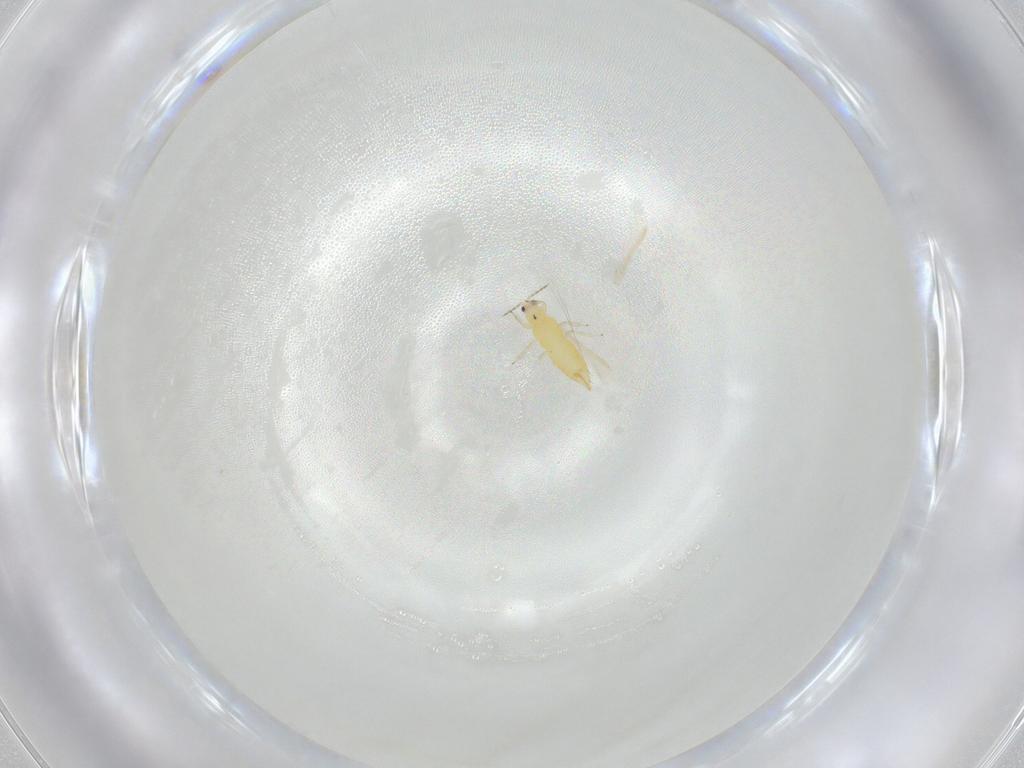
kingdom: Animalia
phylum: Arthropoda
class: Insecta
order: Thysanoptera
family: Thripidae
